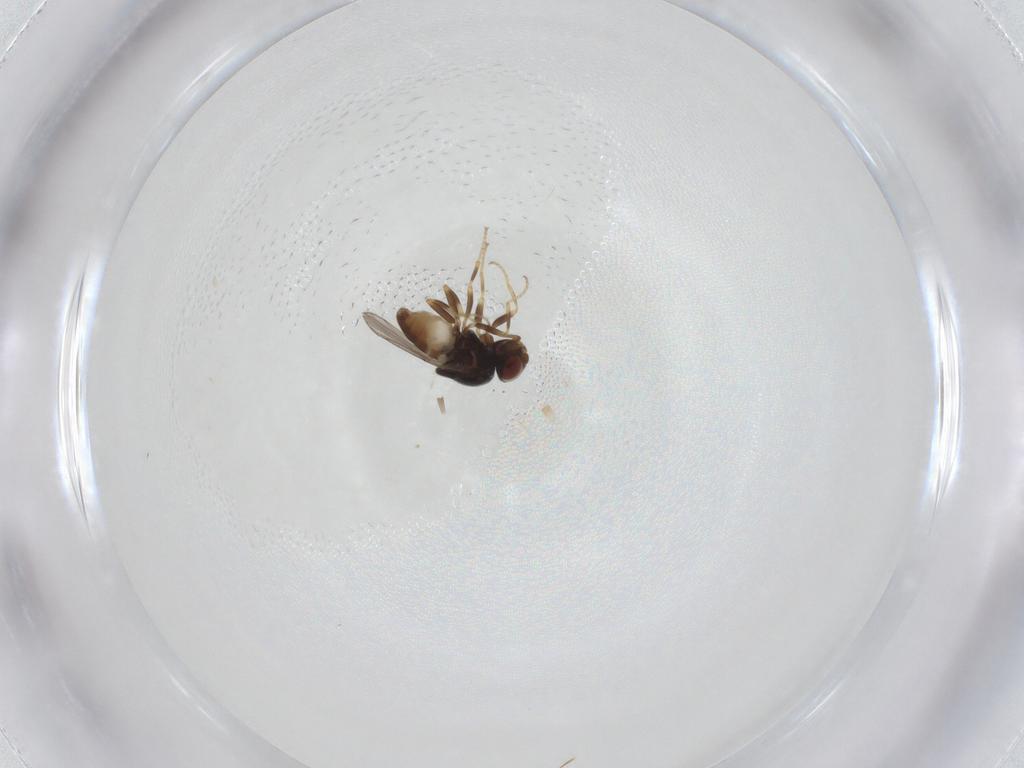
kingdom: Animalia
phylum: Arthropoda
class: Insecta
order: Diptera
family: Chloropidae
